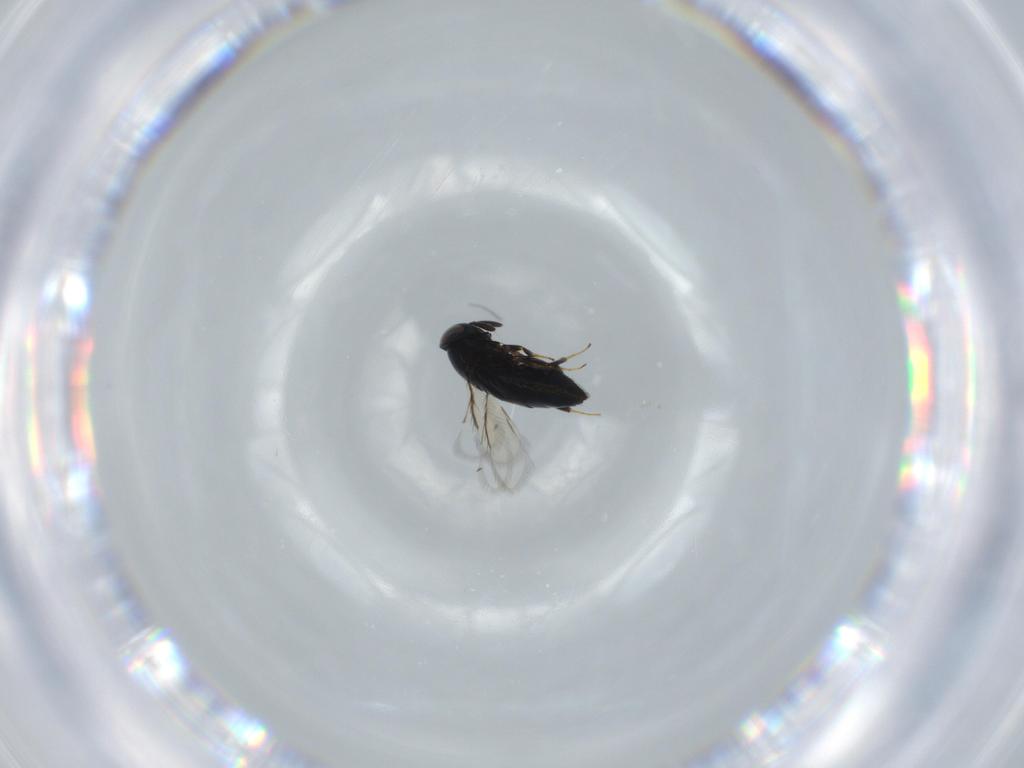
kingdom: Animalia
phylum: Arthropoda
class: Insecta
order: Hymenoptera
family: Signiphoridae
